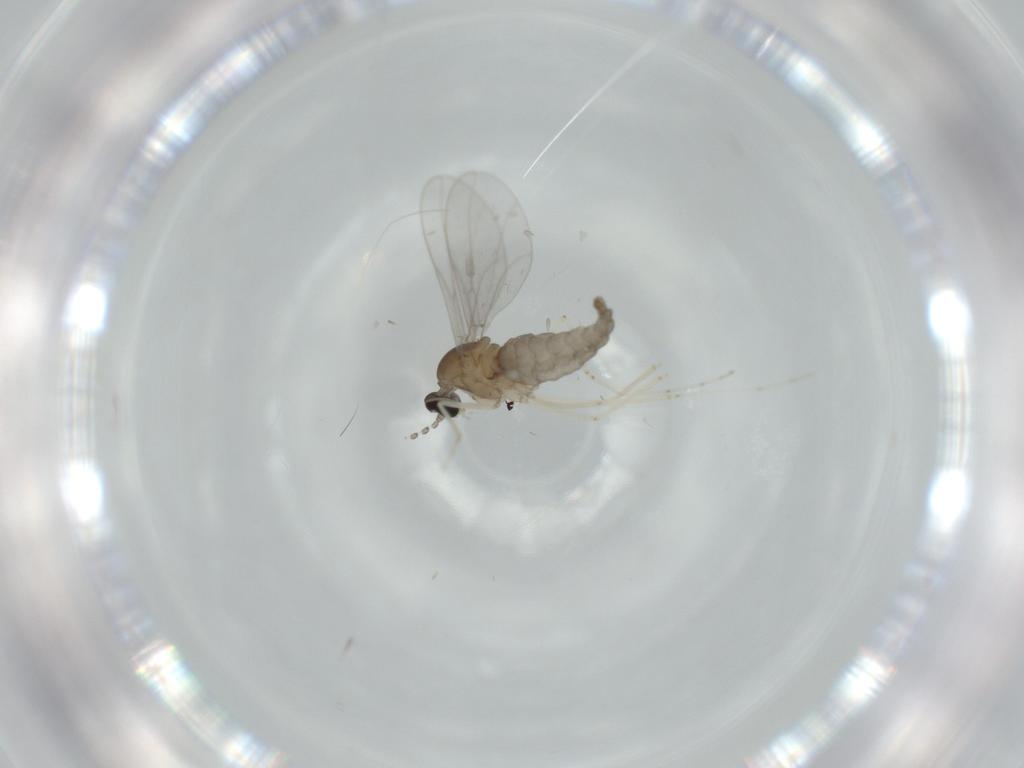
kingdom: Animalia
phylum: Arthropoda
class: Insecta
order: Diptera
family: Cecidomyiidae
